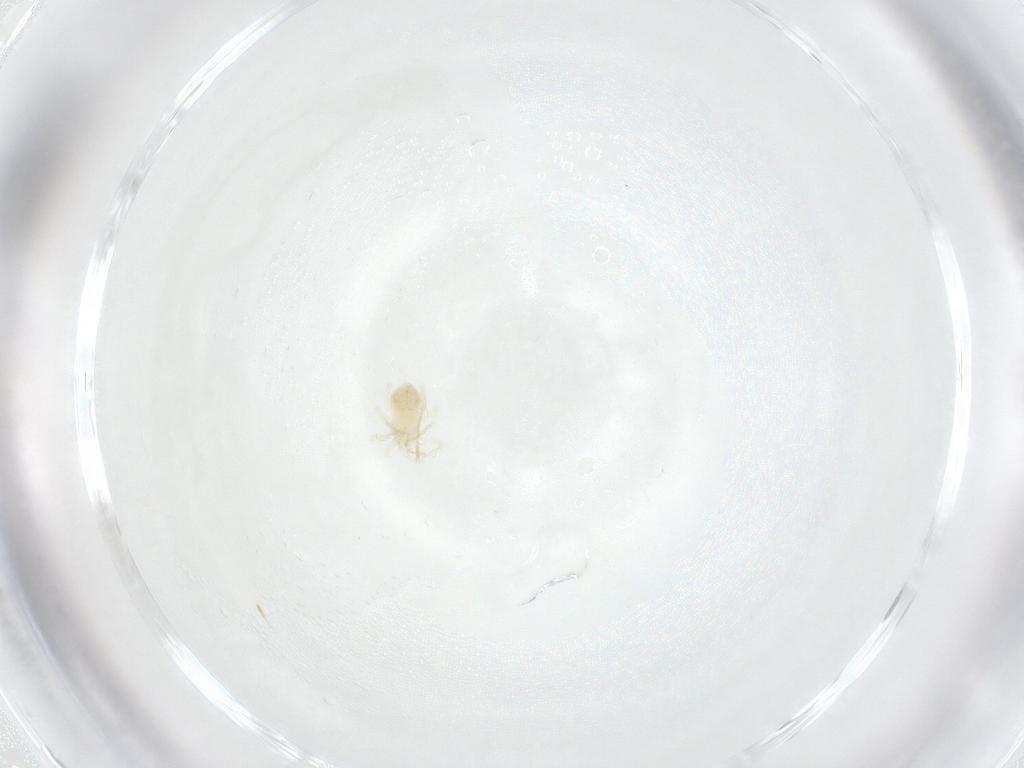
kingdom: Animalia
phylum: Arthropoda
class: Arachnida
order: Trombidiformes
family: Anystidae
